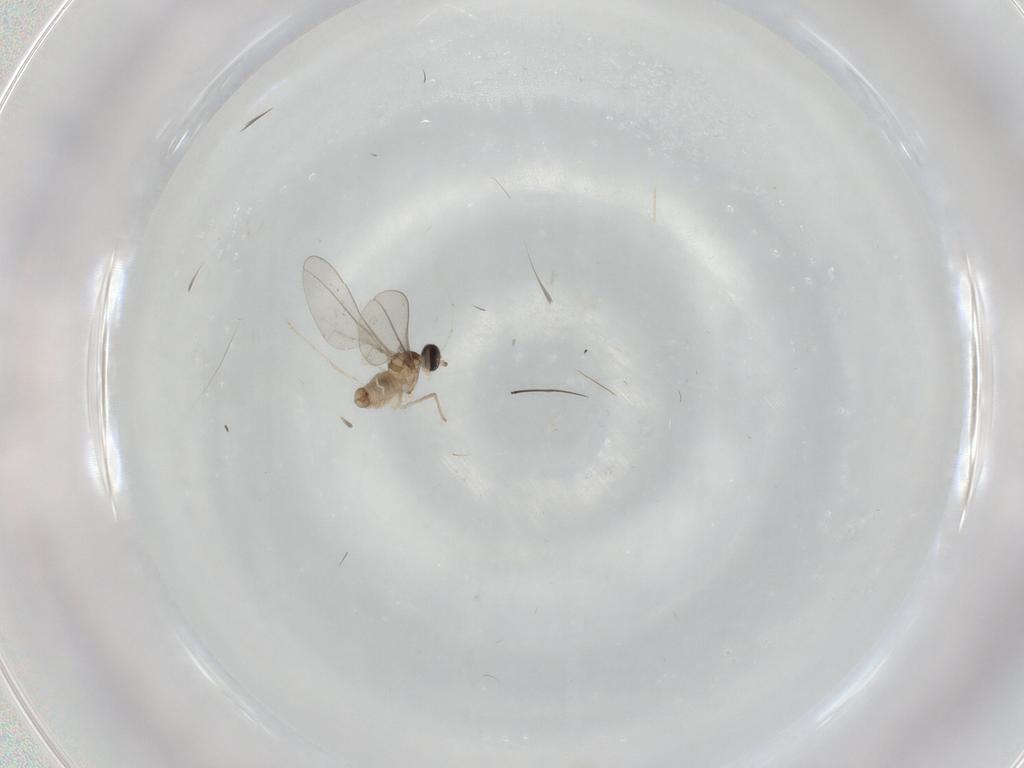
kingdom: Animalia
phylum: Arthropoda
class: Insecta
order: Diptera
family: Cecidomyiidae
